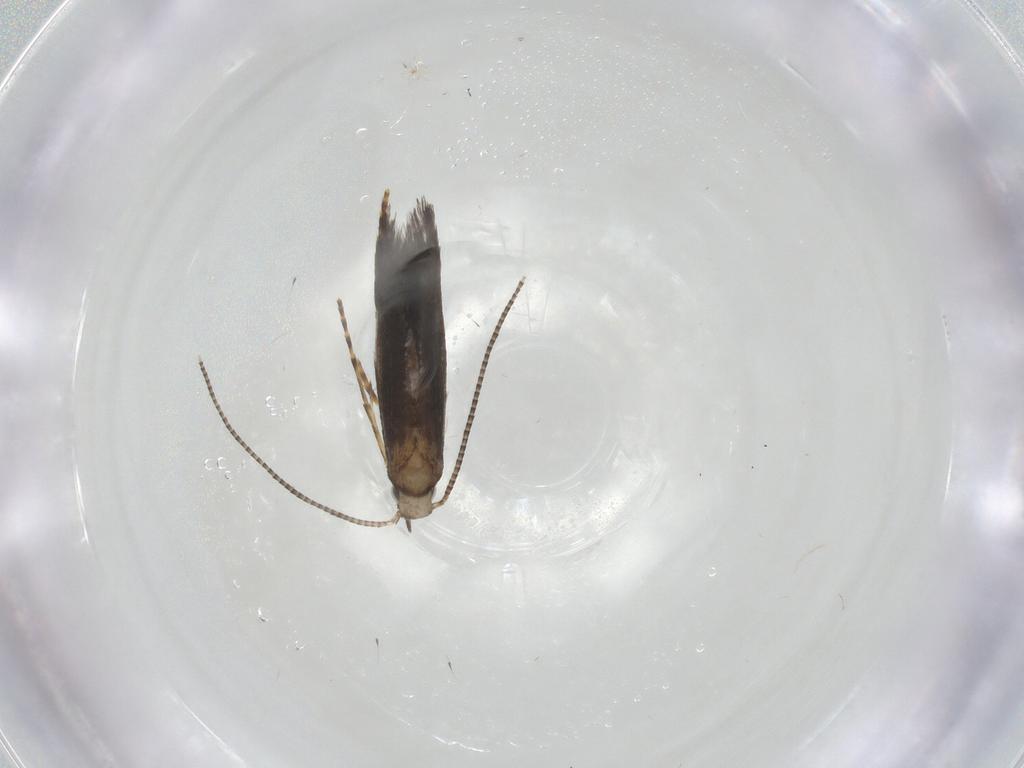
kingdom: Animalia
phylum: Arthropoda
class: Insecta
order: Lepidoptera
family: Gracillariidae
